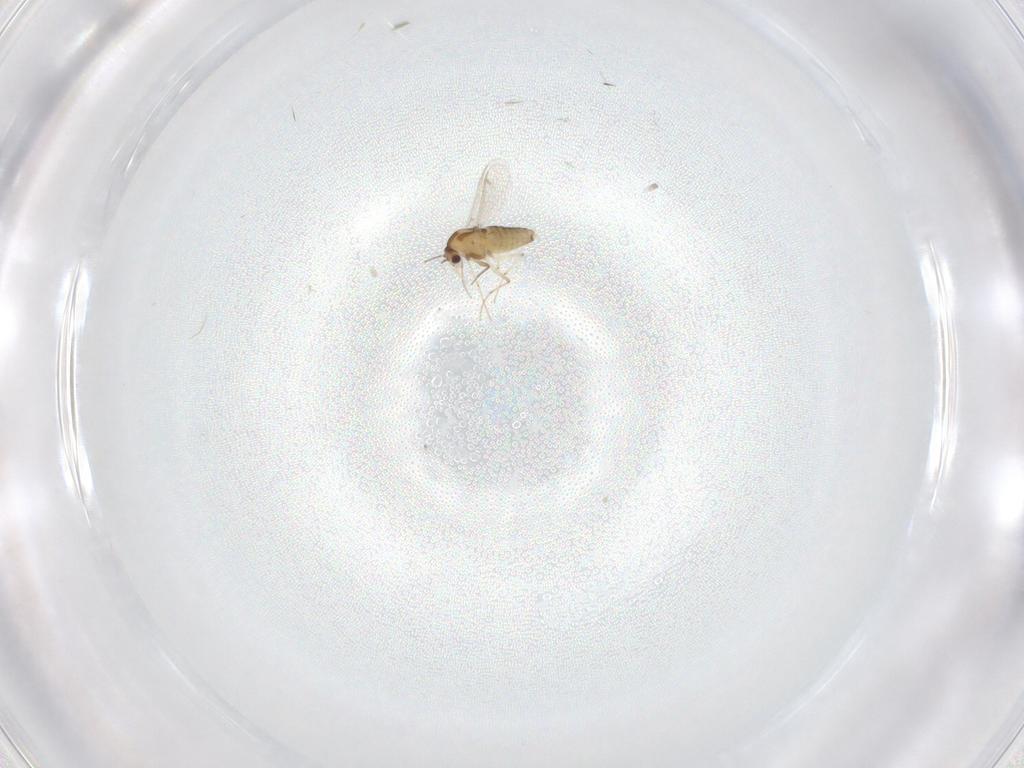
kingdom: Animalia
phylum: Arthropoda
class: Insecta
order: Diptera
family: Chironomidae
